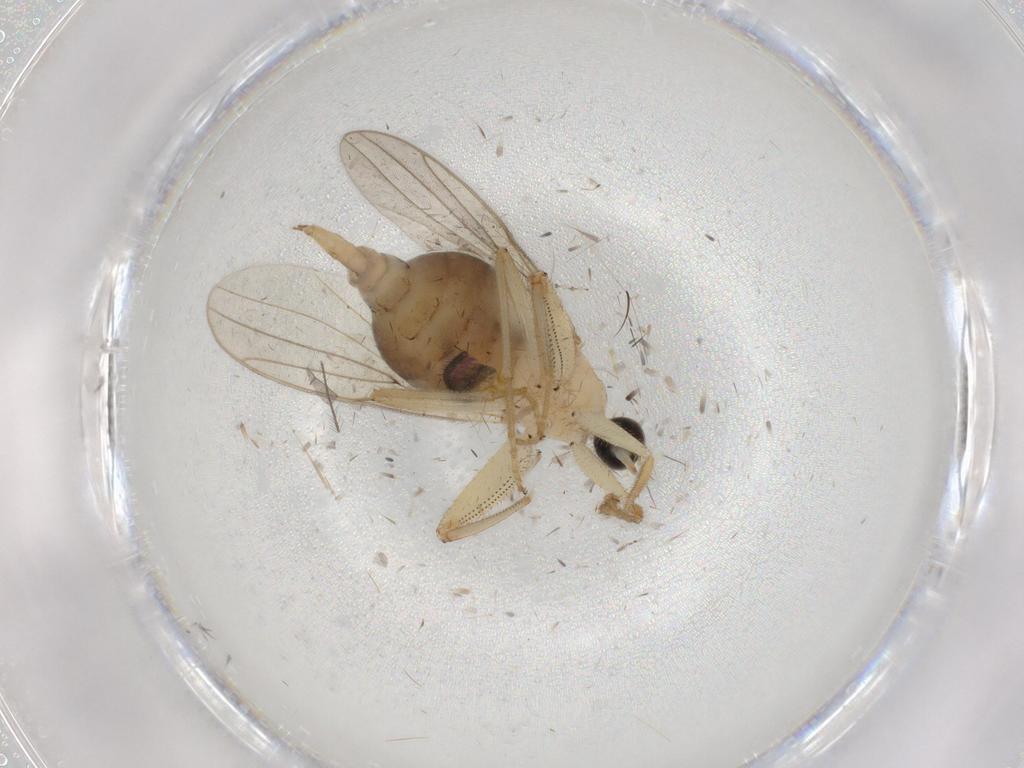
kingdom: Animalia
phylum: Arthropoda
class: Insecta
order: Diptera
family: Hybotidae
